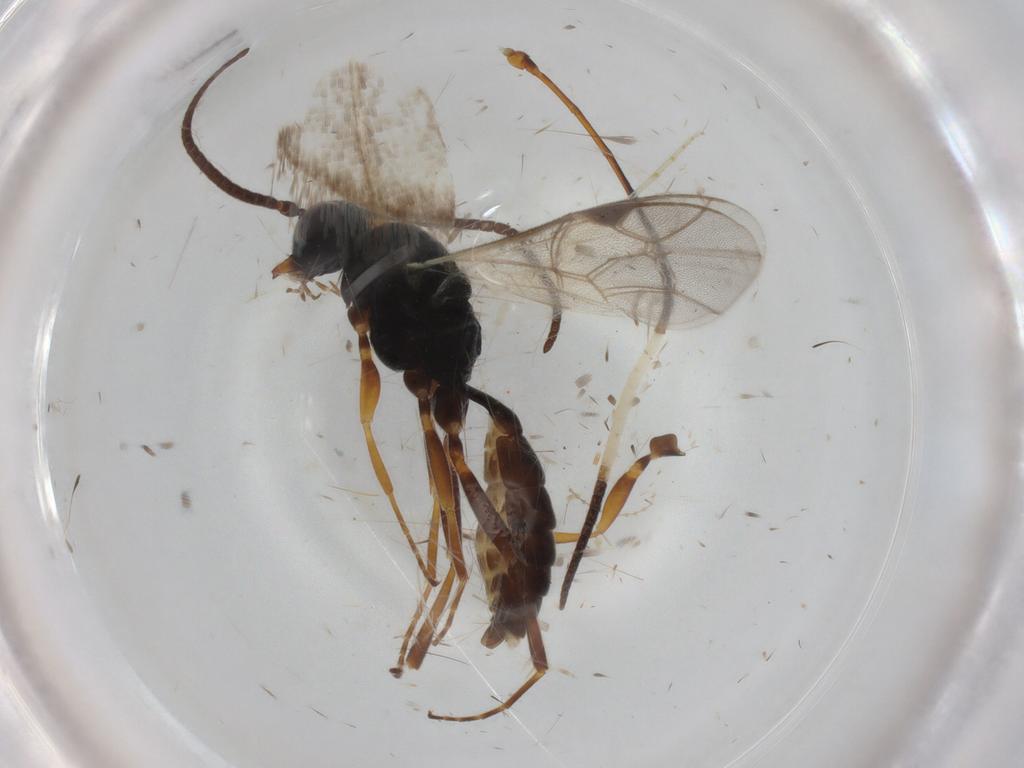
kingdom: Animalia
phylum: Arthropoda
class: Insecta
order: Hymenoptera
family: Ichneumonidae
